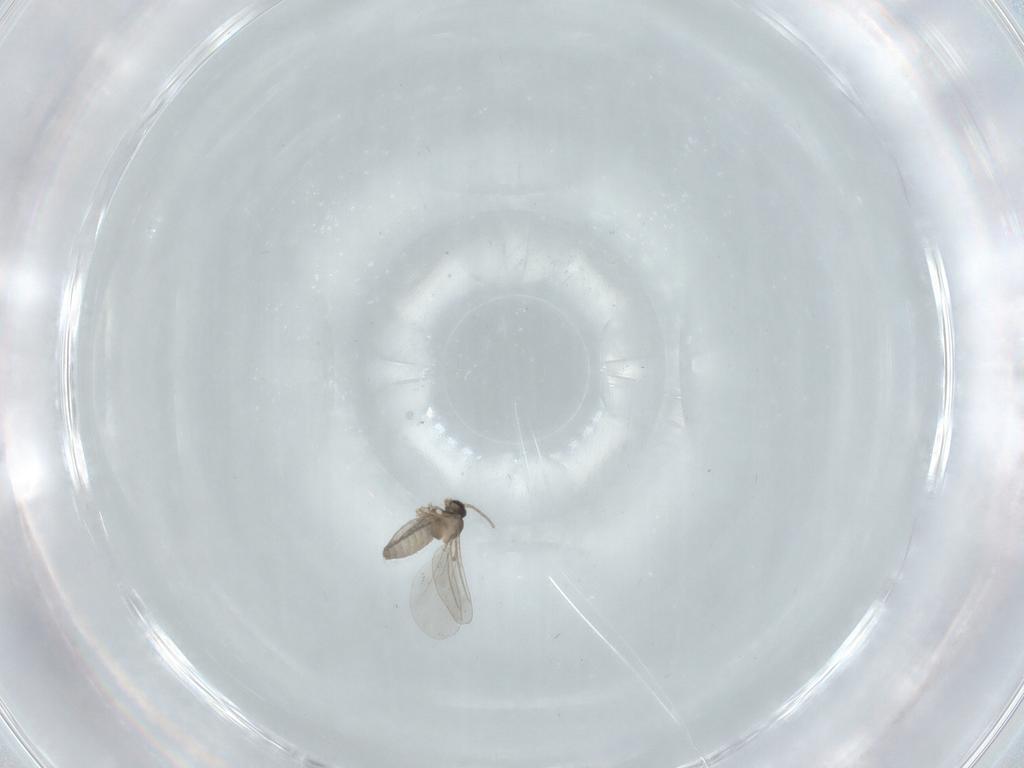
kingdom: Animalia
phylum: Arthropoda
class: Insecta
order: Diptera
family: Cecidomyiidae
